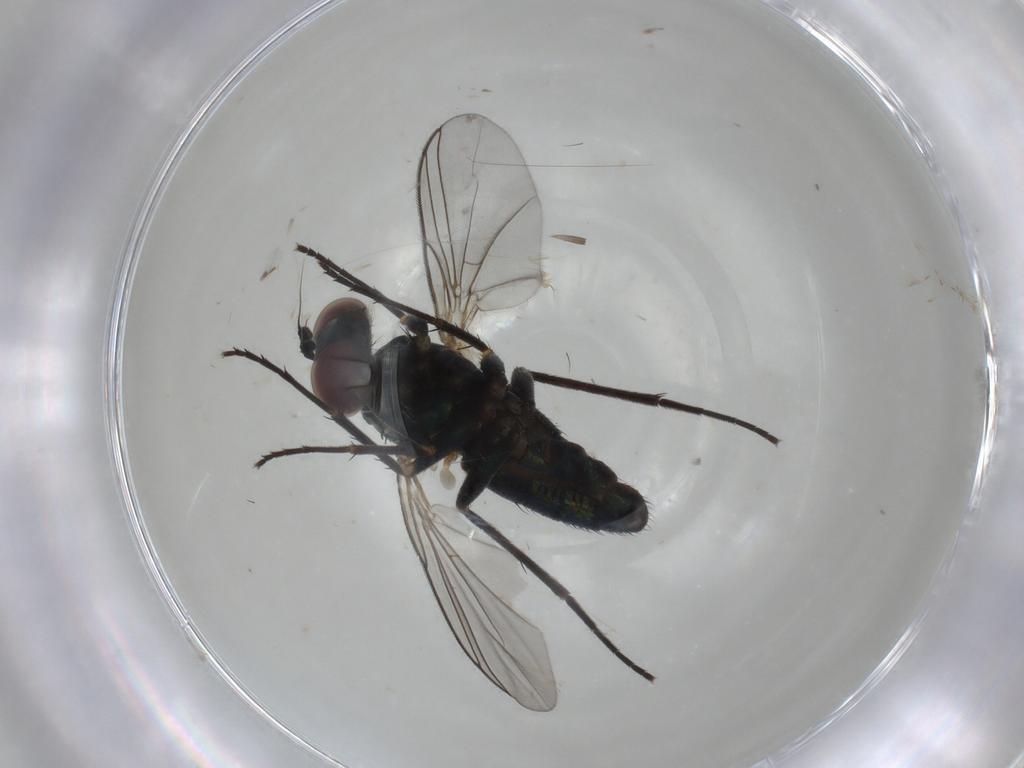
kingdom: Animalia
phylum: Arthropoda
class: Insecta
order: Diptera
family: Dolichopodidae
